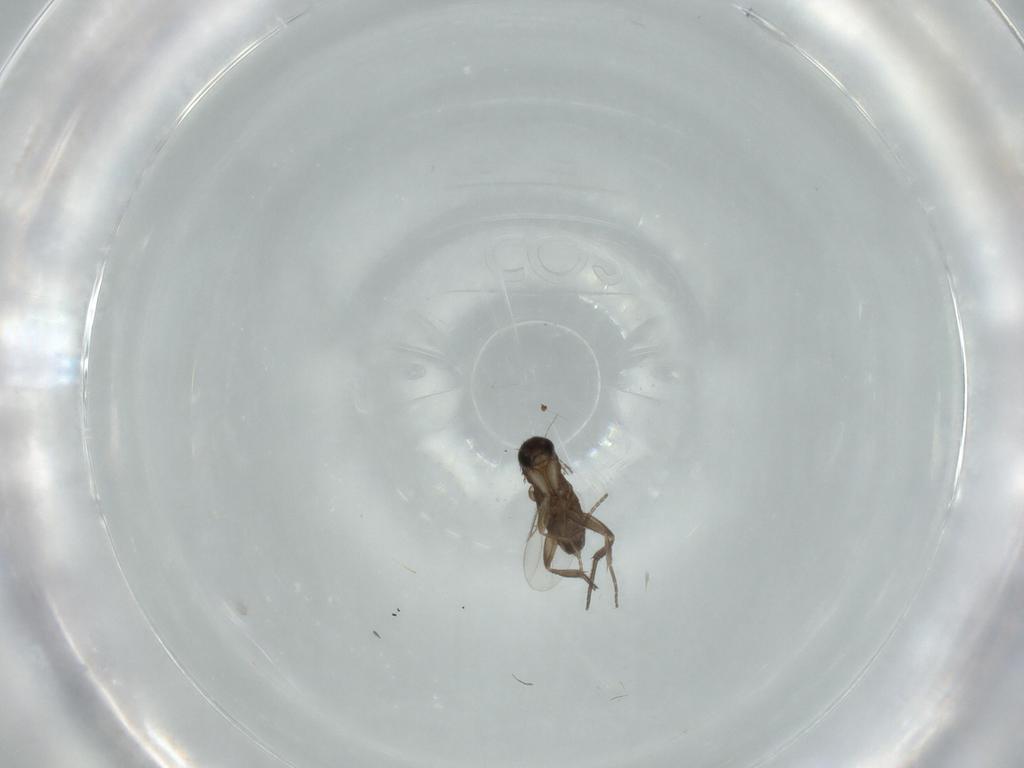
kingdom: Animalia
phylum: Arthropoda
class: Insecta
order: Diptera
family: Phoridae
